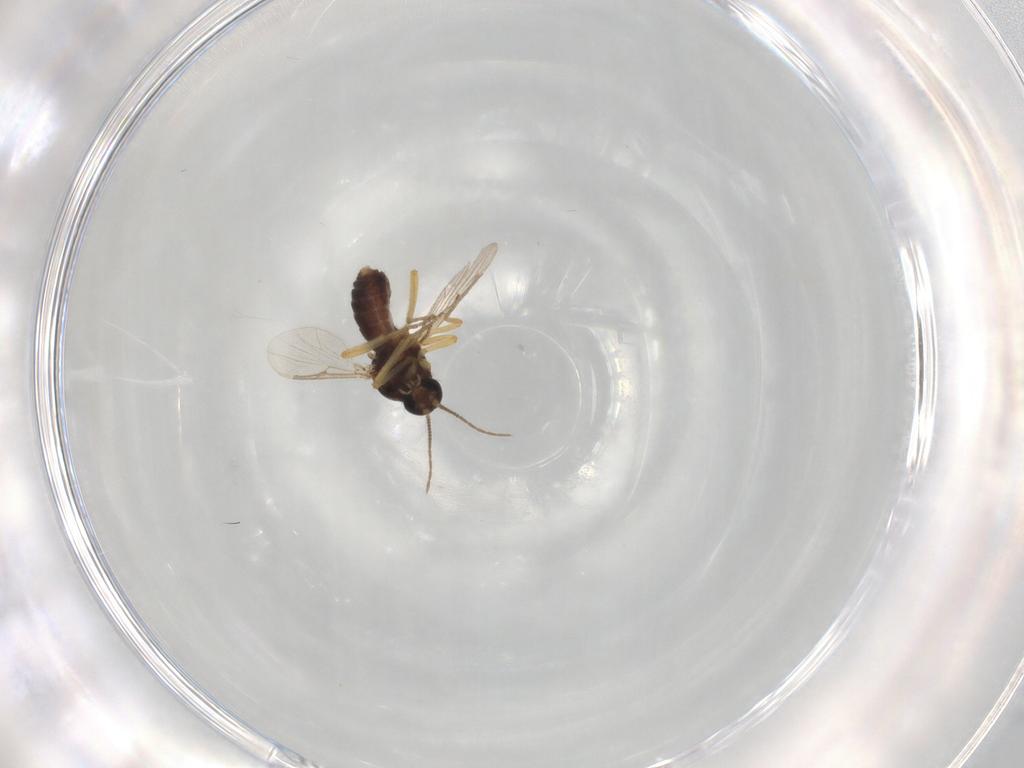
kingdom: Animalia
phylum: Arthropoda
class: Insecta
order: Diptera
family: Ceratopogonidae
